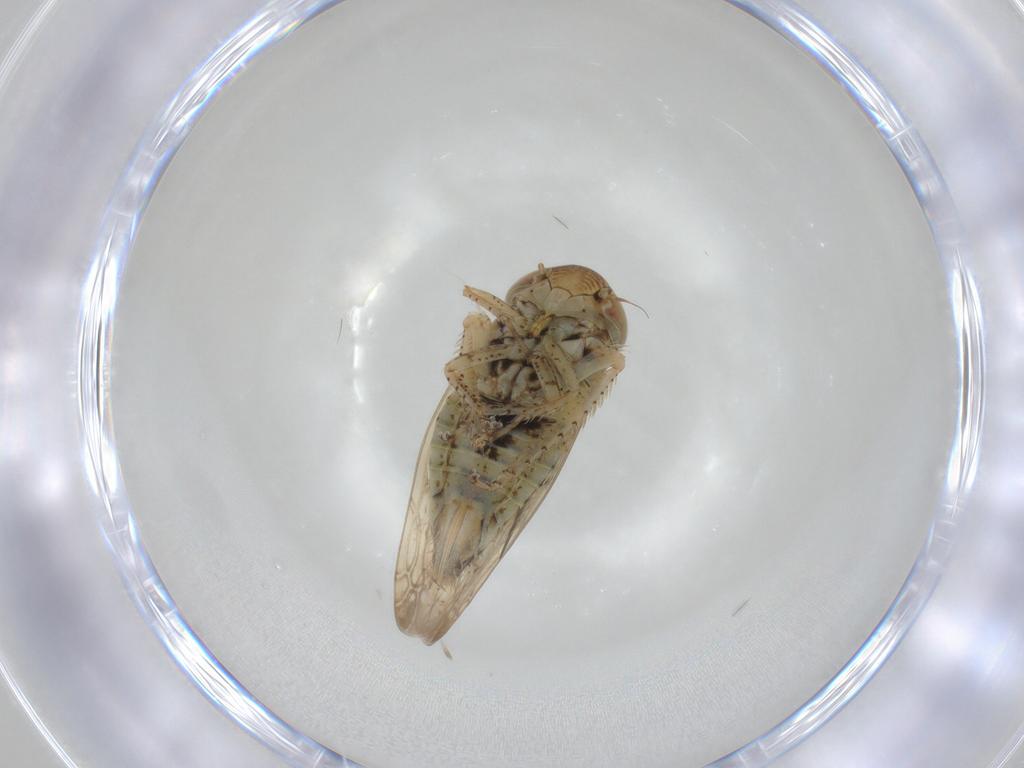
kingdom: Animalia
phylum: Arthropoda
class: Insecta
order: Hemiptera
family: Cicadellidae
